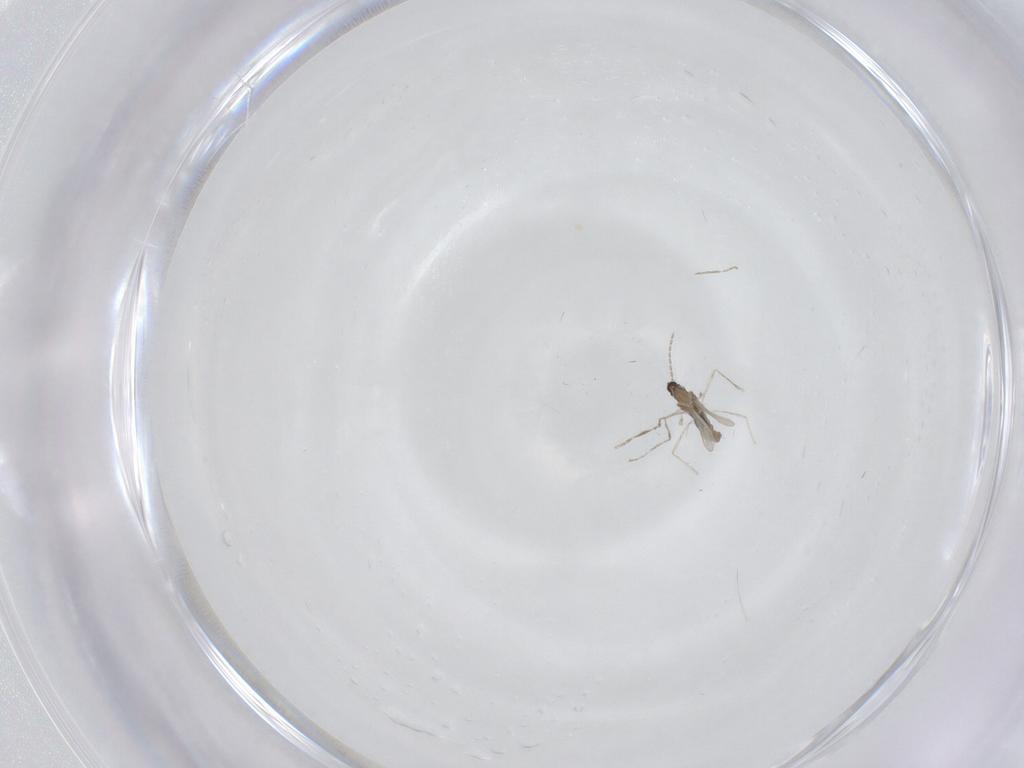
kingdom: Animalia
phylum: Arthropoda
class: Insecta
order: Diptera
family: Cecidomyiidae
